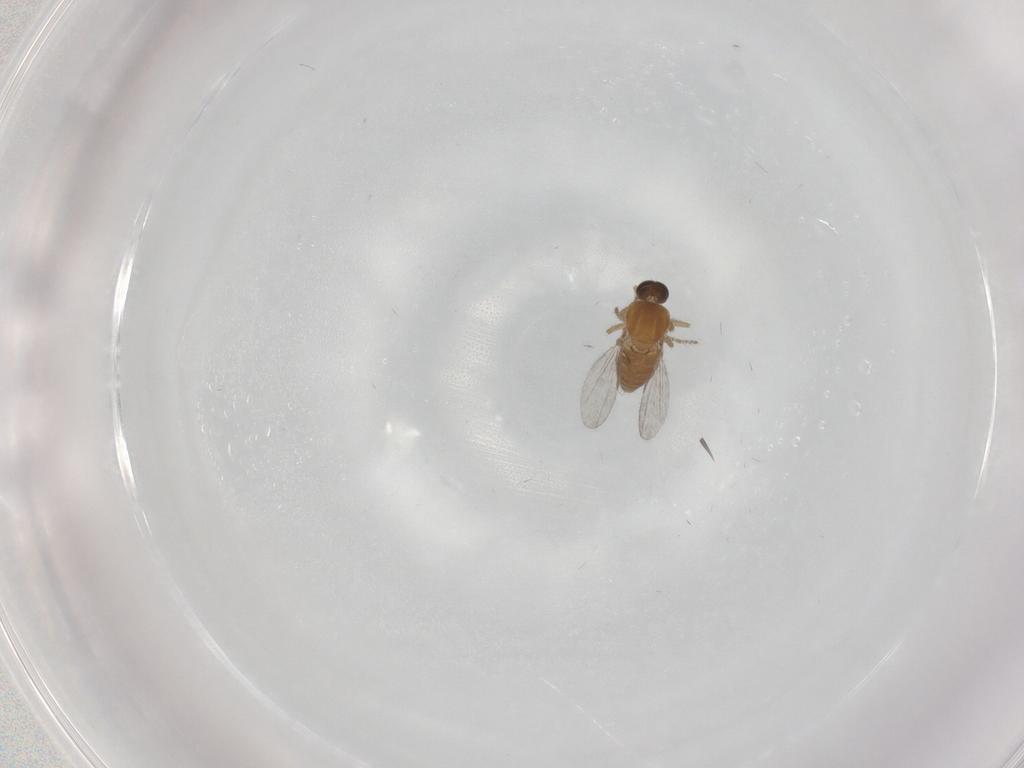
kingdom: Animalia
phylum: Arthropoda
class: Insecta
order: Diptera
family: Ceratopogonidae
